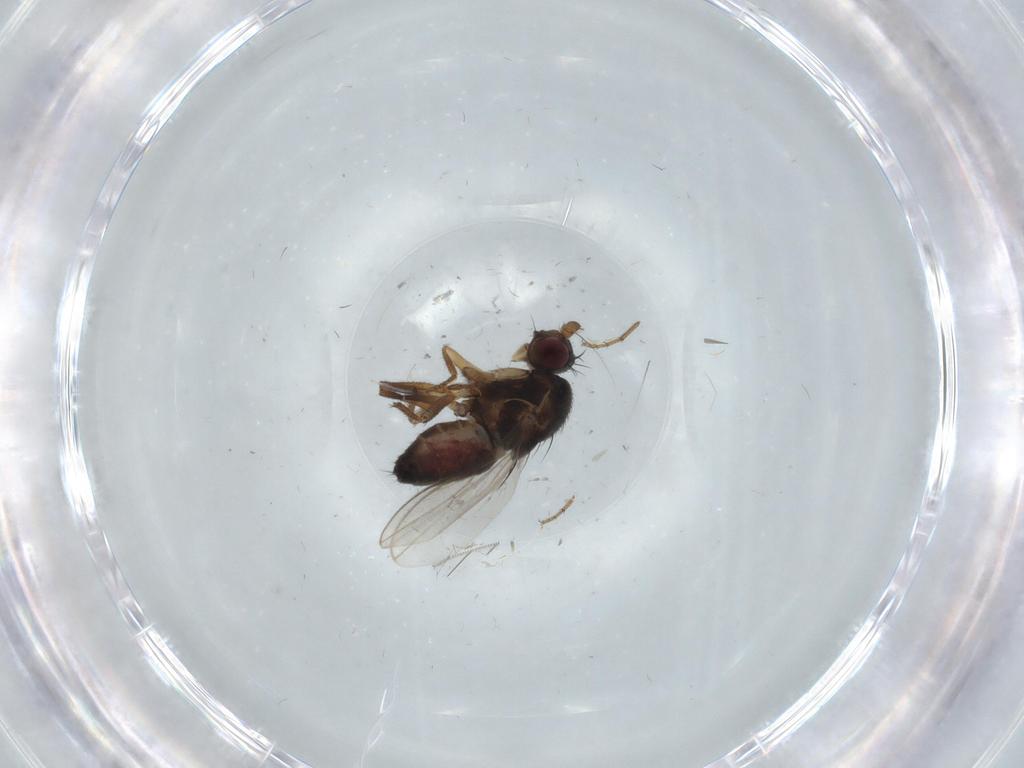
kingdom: Animalia
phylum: Arthropoda
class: Insecta
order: Diptera
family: Sphaeroceridae
